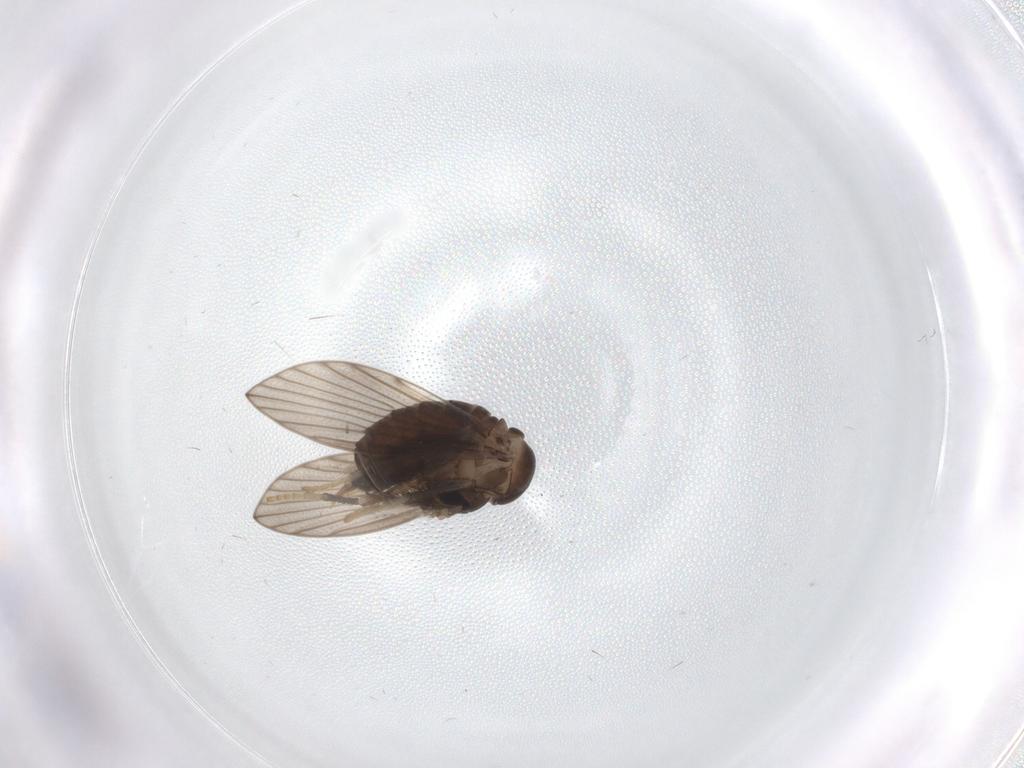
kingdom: Animalia
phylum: Arthropoda
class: Insecta
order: Diptera
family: Psychodidae
